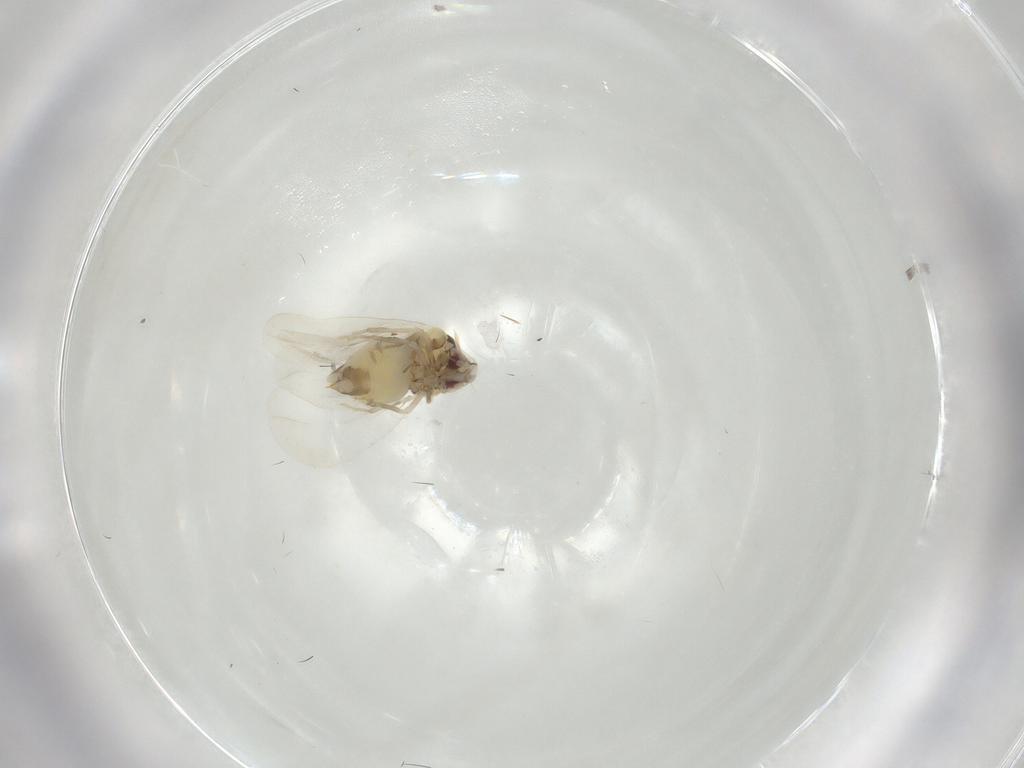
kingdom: Animalia
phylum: Arthropoda
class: Insecta
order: Hemiptera
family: Aleyrodidae
